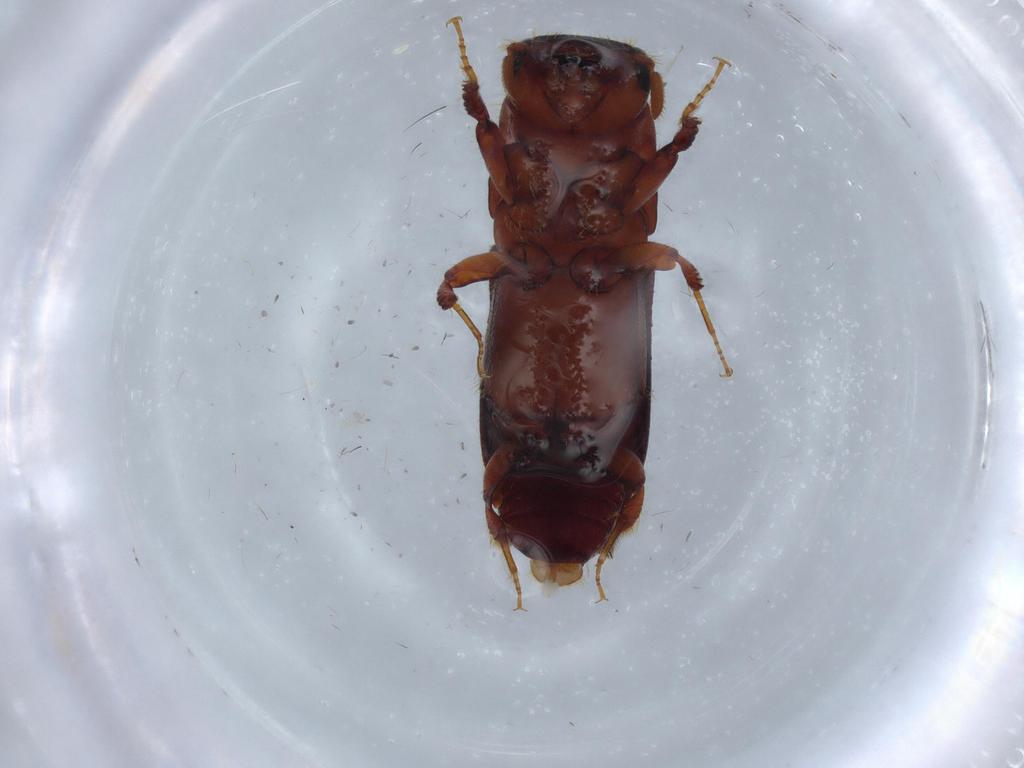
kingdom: Animalia
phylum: Arthropoda
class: Insecta
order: Coleoptera
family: Curculionidae
